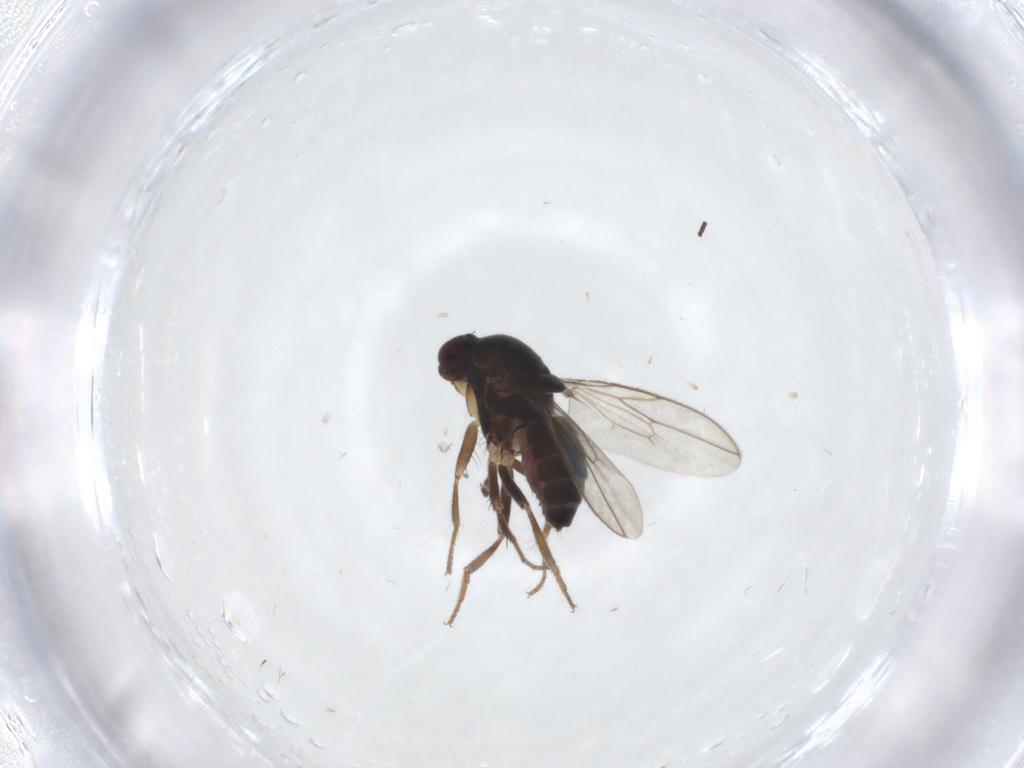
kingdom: Animalia
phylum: Arthropoda
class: Insecta
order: Diptera
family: Sphaeroceridae
